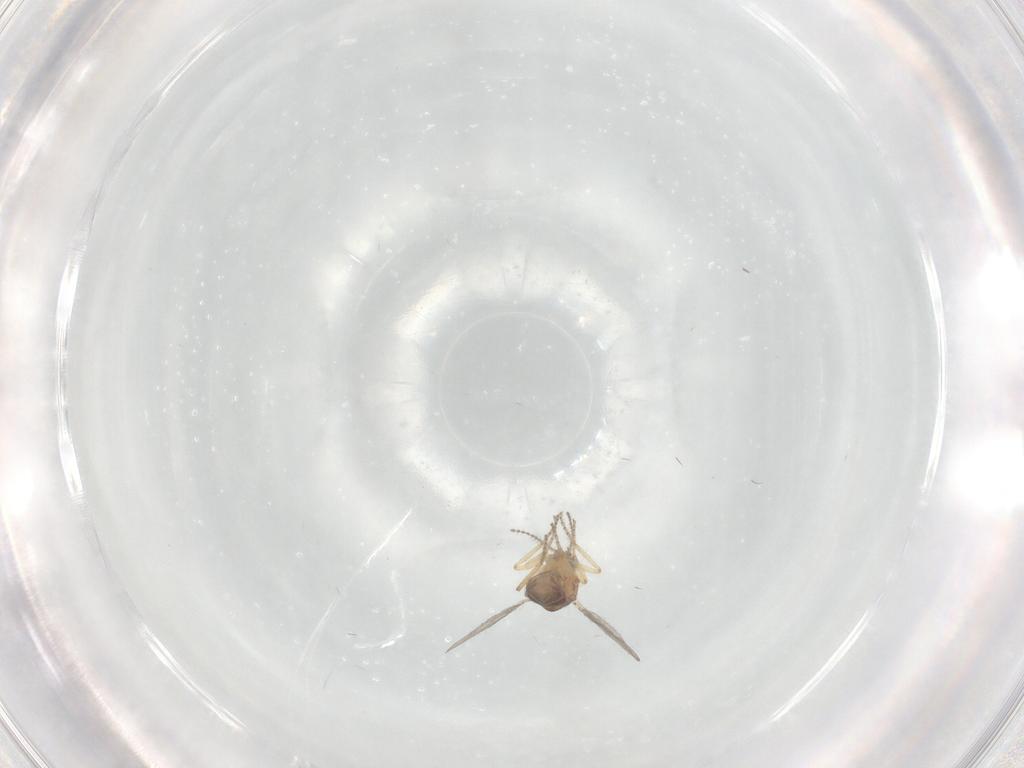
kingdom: Animalia
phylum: Arthropoda
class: Insecta
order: Diptera
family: Ceratopogonidae
